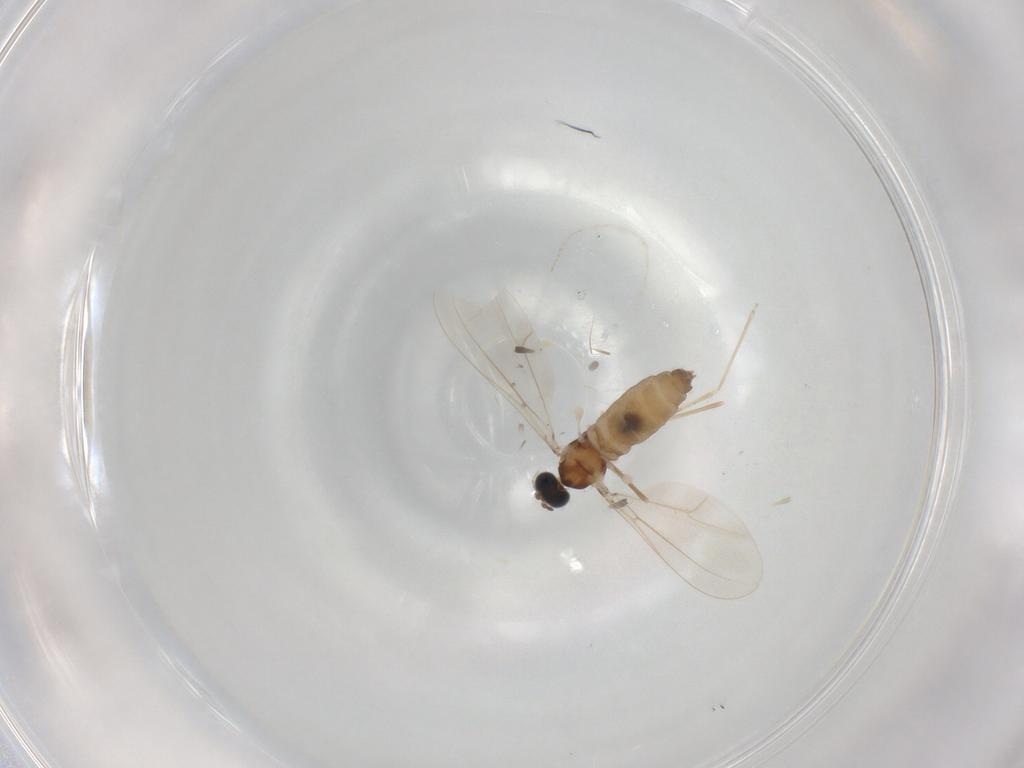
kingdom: Animalia
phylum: Arthropoda
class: Insecta
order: Diptera
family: Cecidomyiidae
